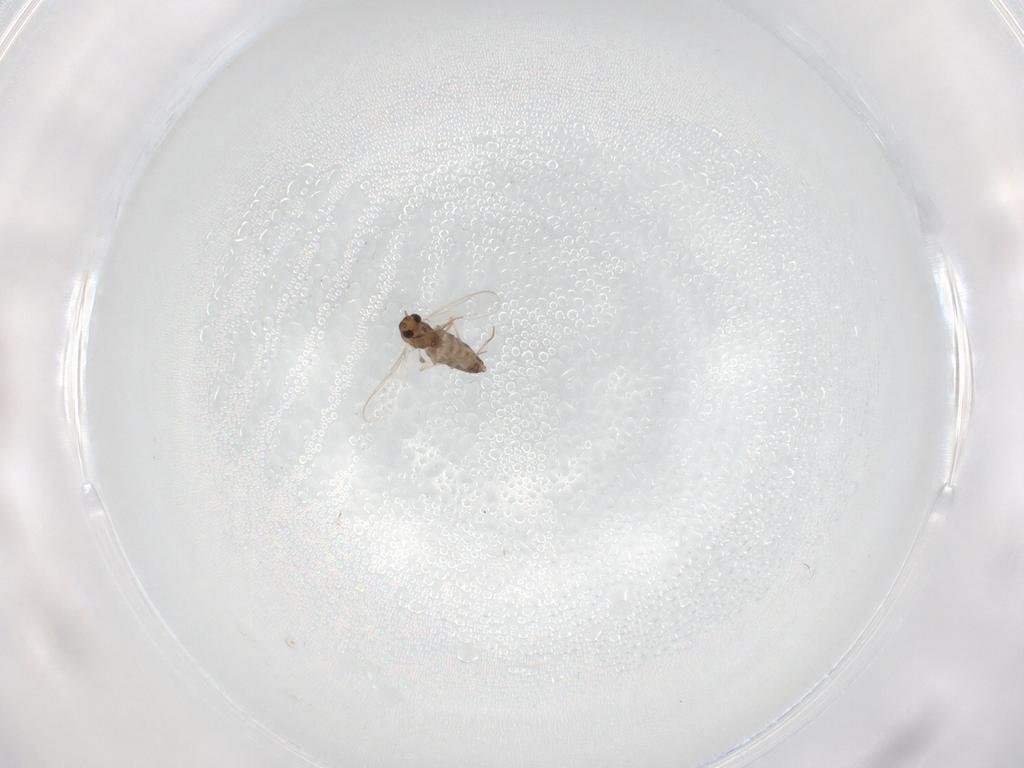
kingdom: Animalia
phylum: Arthropoda
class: Insecta
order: Diptera
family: Chironomidae
